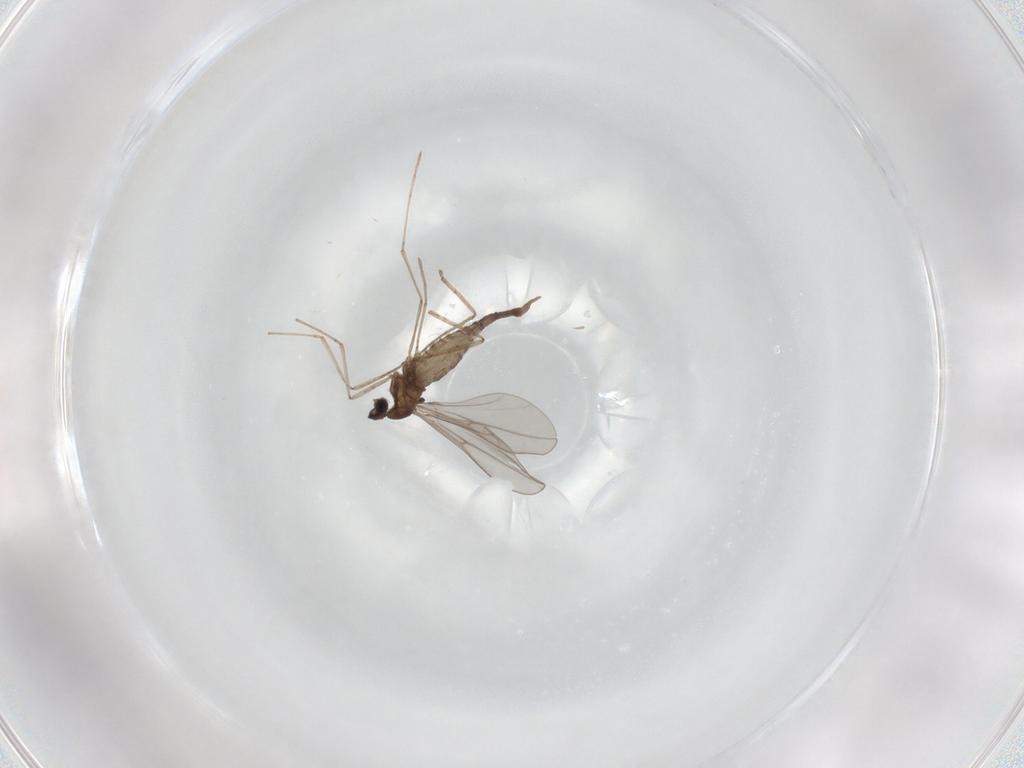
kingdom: Animalia
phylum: Arthropoda
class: Insecta
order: Diptera
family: Cecidomyiidae
